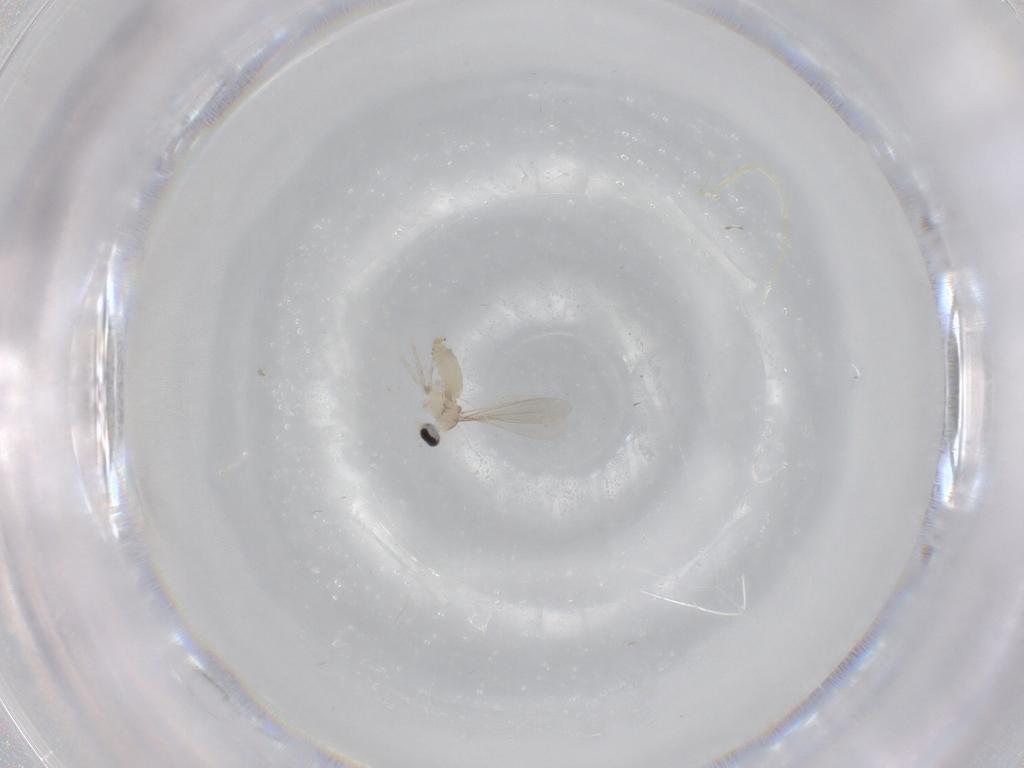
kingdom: Animalia
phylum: Arthropoda
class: Insecta
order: Diptera
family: Cecidomyiidae
